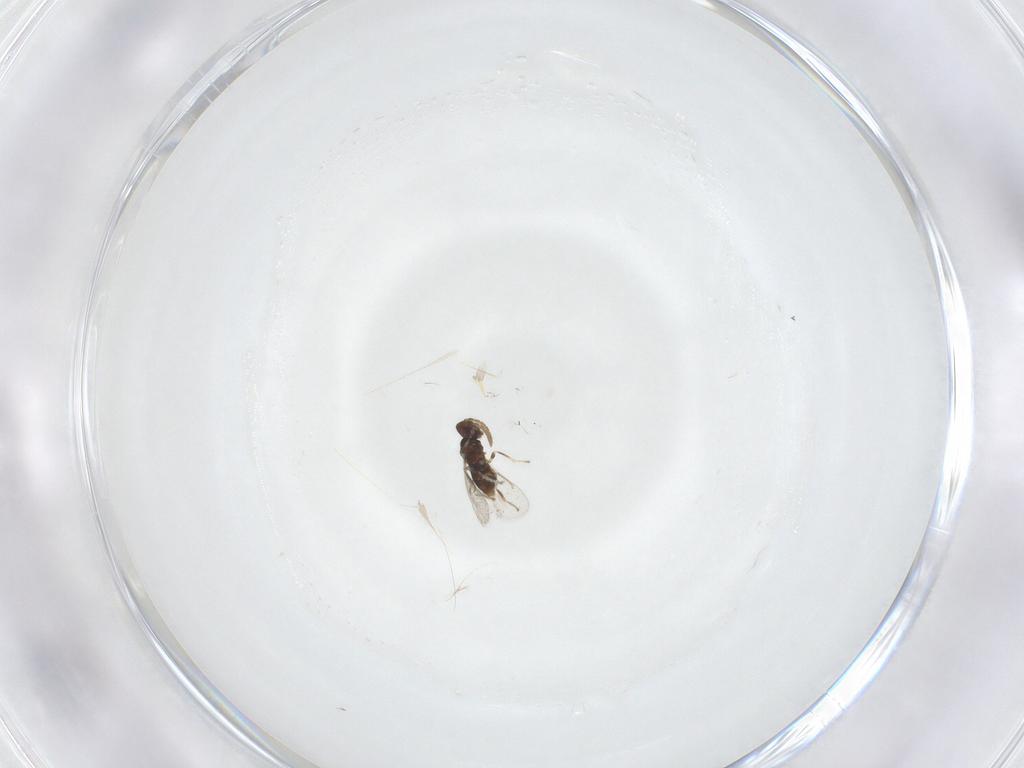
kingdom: Animalia
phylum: Arthropoda
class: Insecta
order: Hymenoptera
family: Aphelinidae
